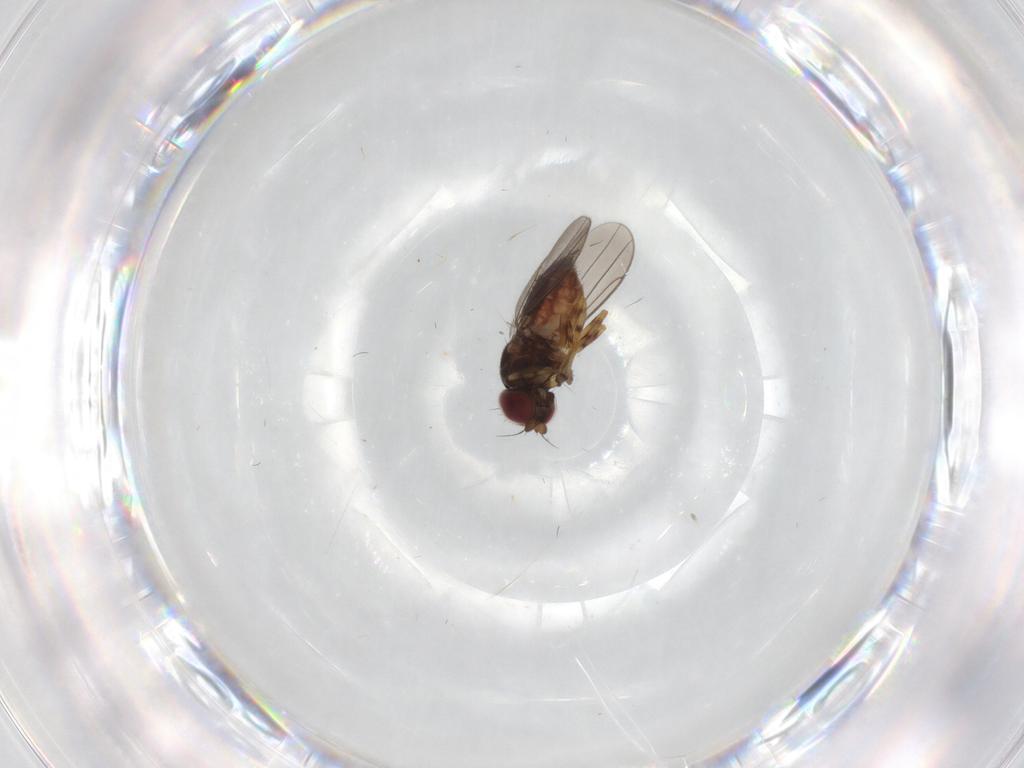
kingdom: Animalia
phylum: Arthropoda
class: Insecta
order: Diptera
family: Chloropidae
